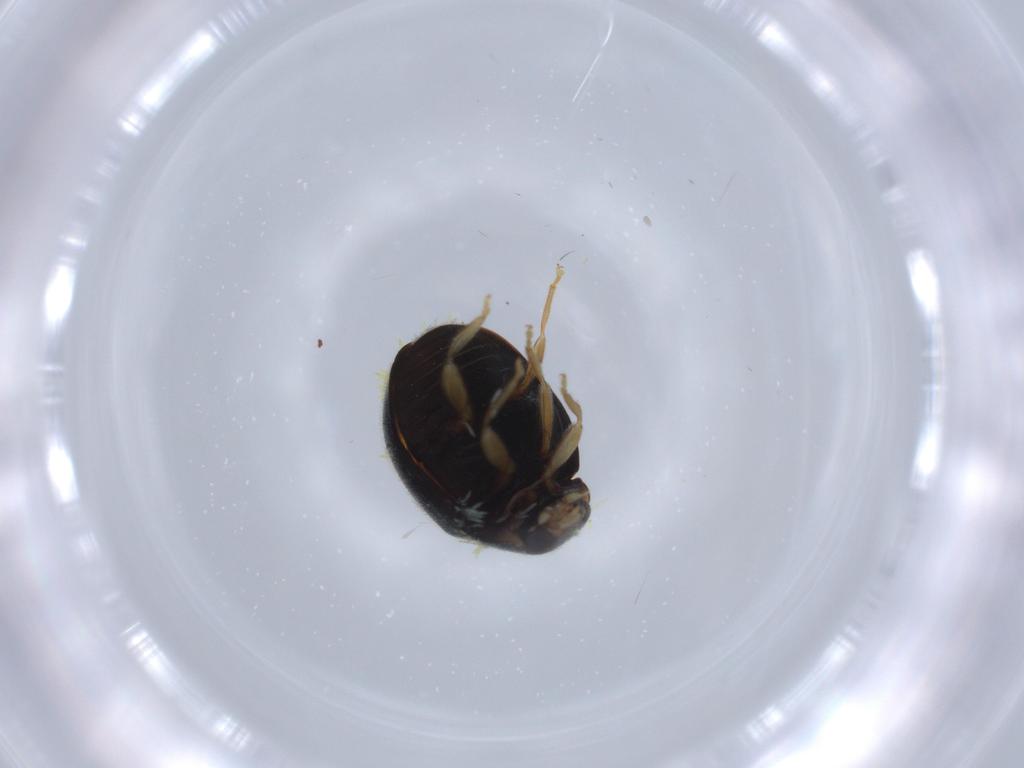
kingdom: Animalia
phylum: Arthropoda
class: Insecta
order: Coleoptera
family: Coccinellidae
